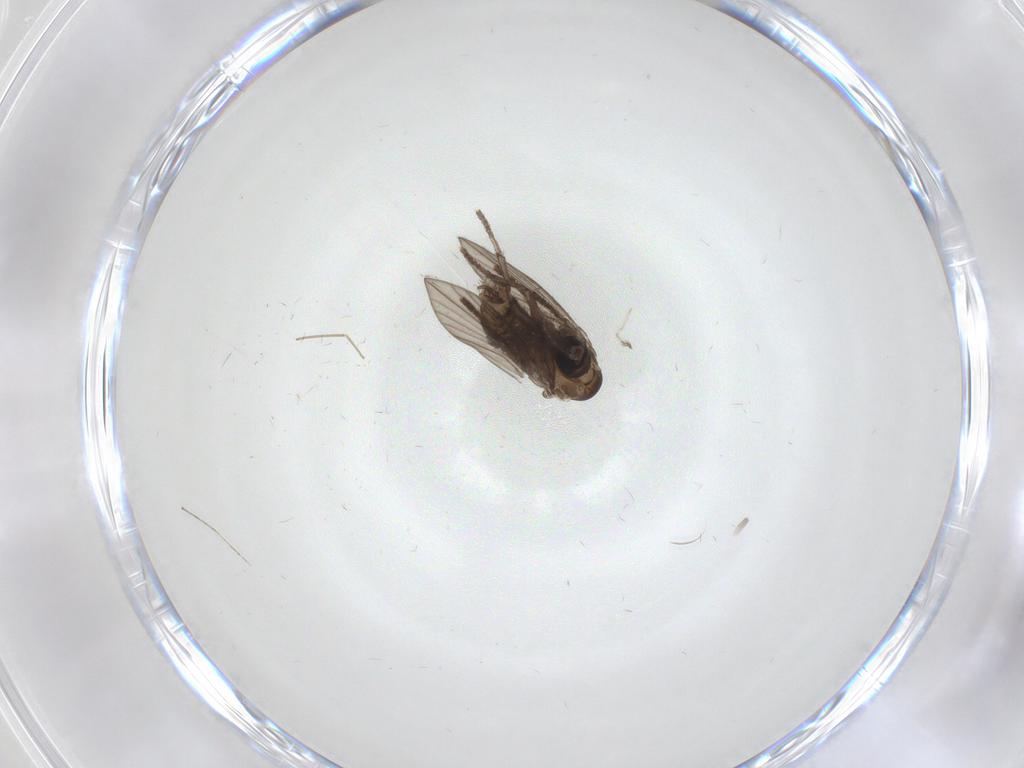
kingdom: Animalia
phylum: Arthropoda
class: Insecta
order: Diptera
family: Psychodidae
